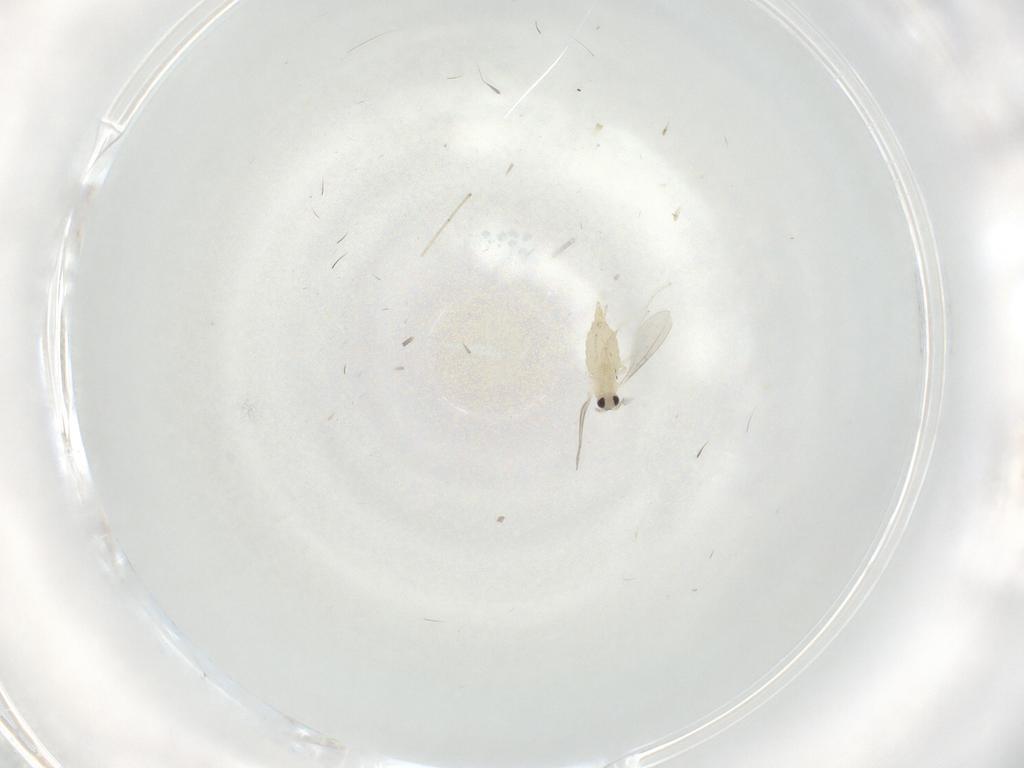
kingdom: Animalia
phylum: Arthropoda
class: Insecta
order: Diptera
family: Cecidomyiidae
